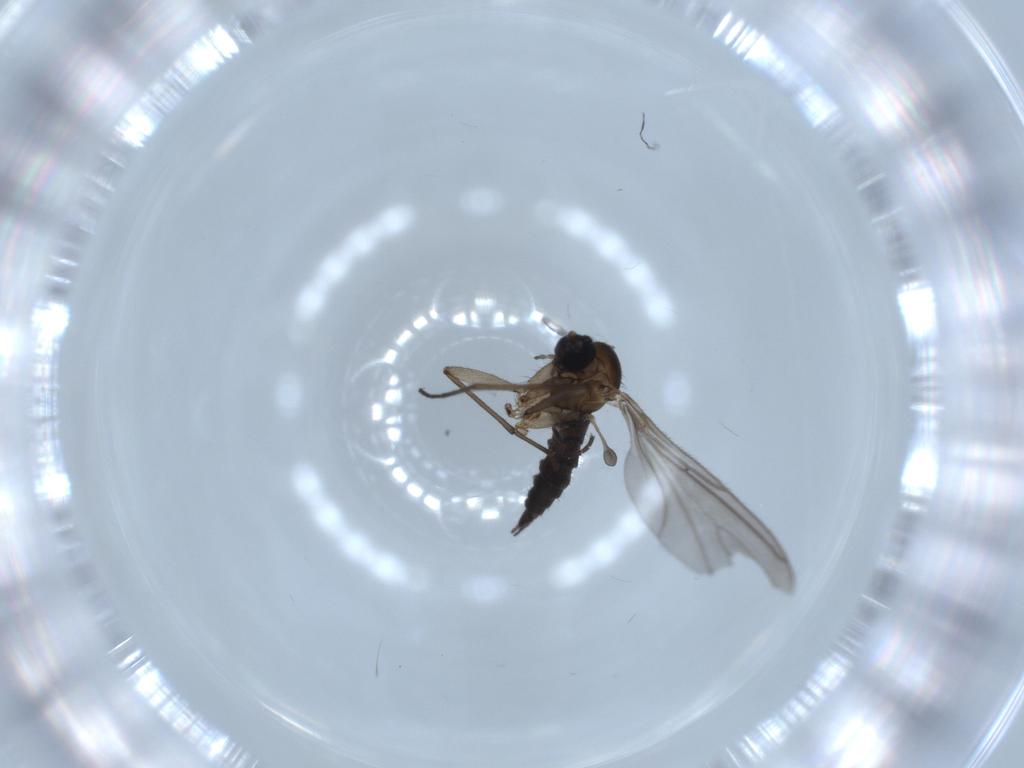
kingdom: Animalia
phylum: Arthropoda
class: Insecta
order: Diptera
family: Sciaridae
